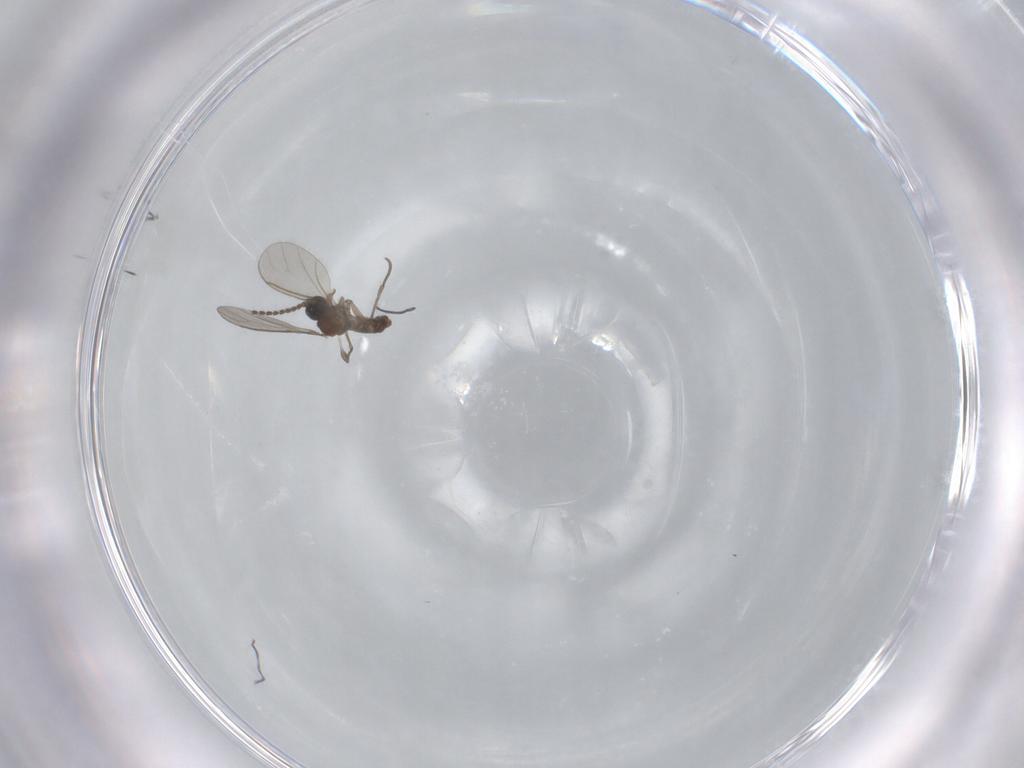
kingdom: Animalia
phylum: Arthropoda
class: Insecta
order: Diptera
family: Sciaridae
